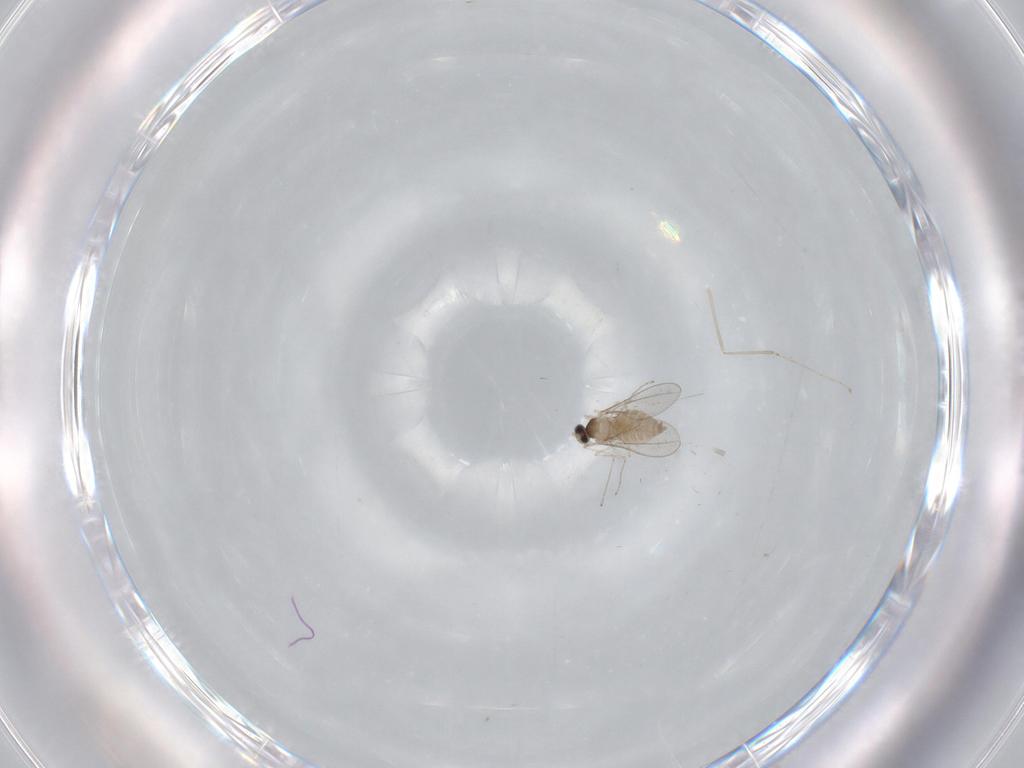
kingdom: Animalia
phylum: Arthropoda
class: Insecta
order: Diptera
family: Cecidomyiidae
